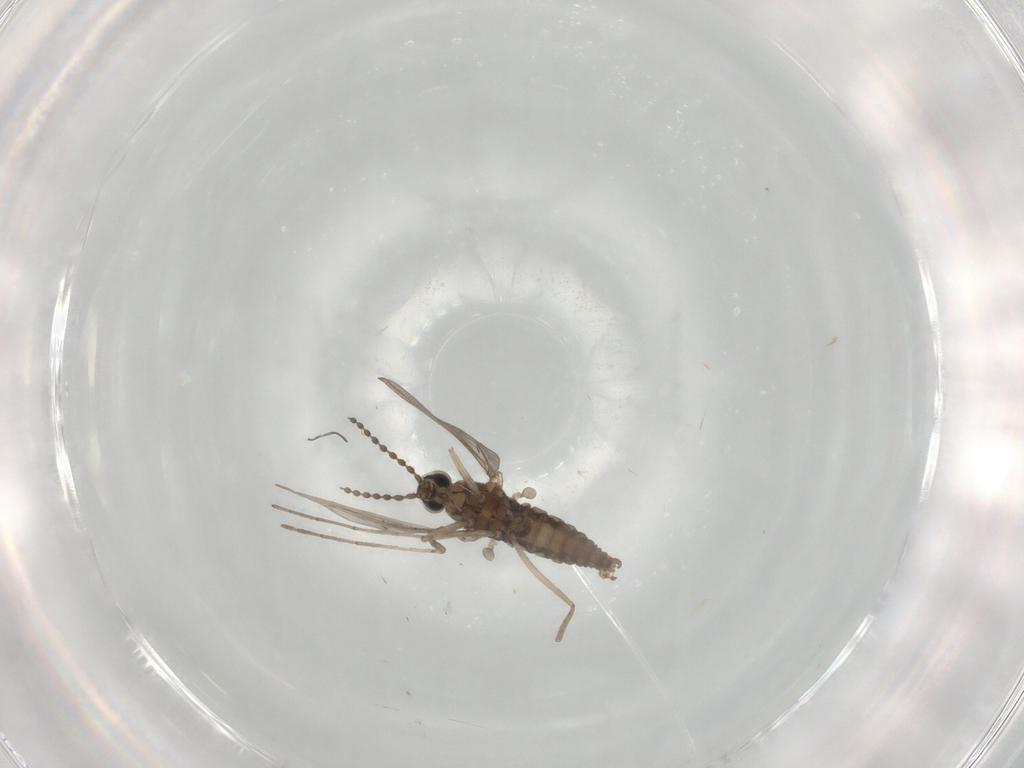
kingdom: Animalia
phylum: Arthropoda
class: Insecta
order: Diptera
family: Cecidomyiidae
